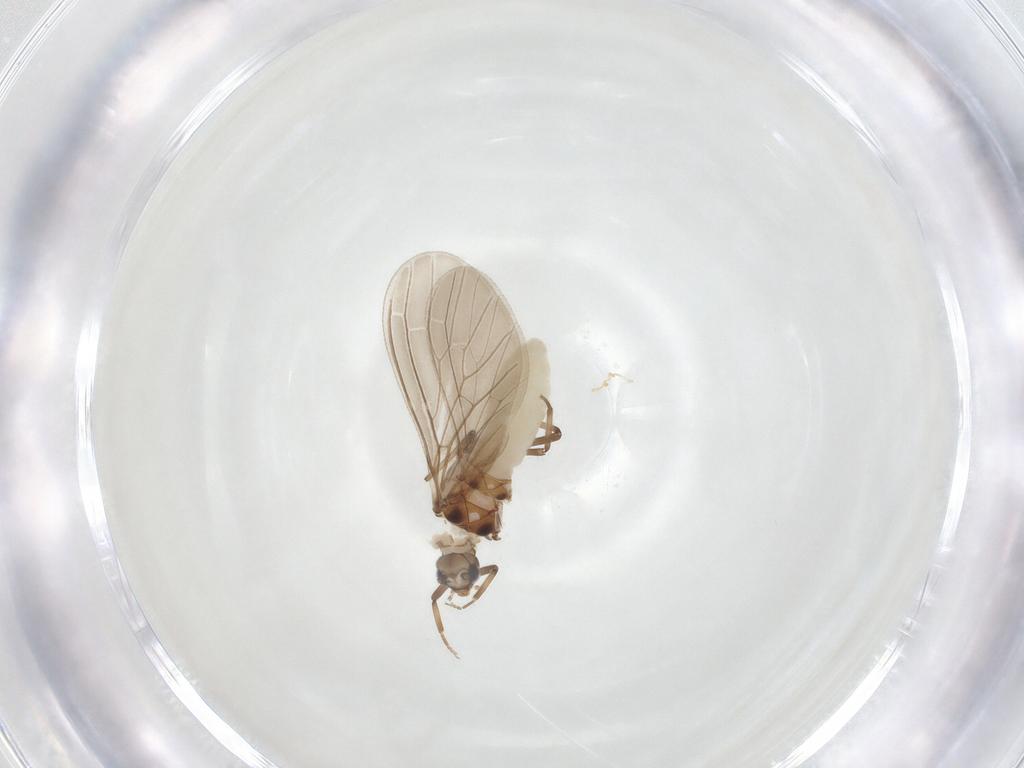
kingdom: Animalia
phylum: Arthropoda
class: Insecta
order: Neuroptera
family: Coniopterygidae
